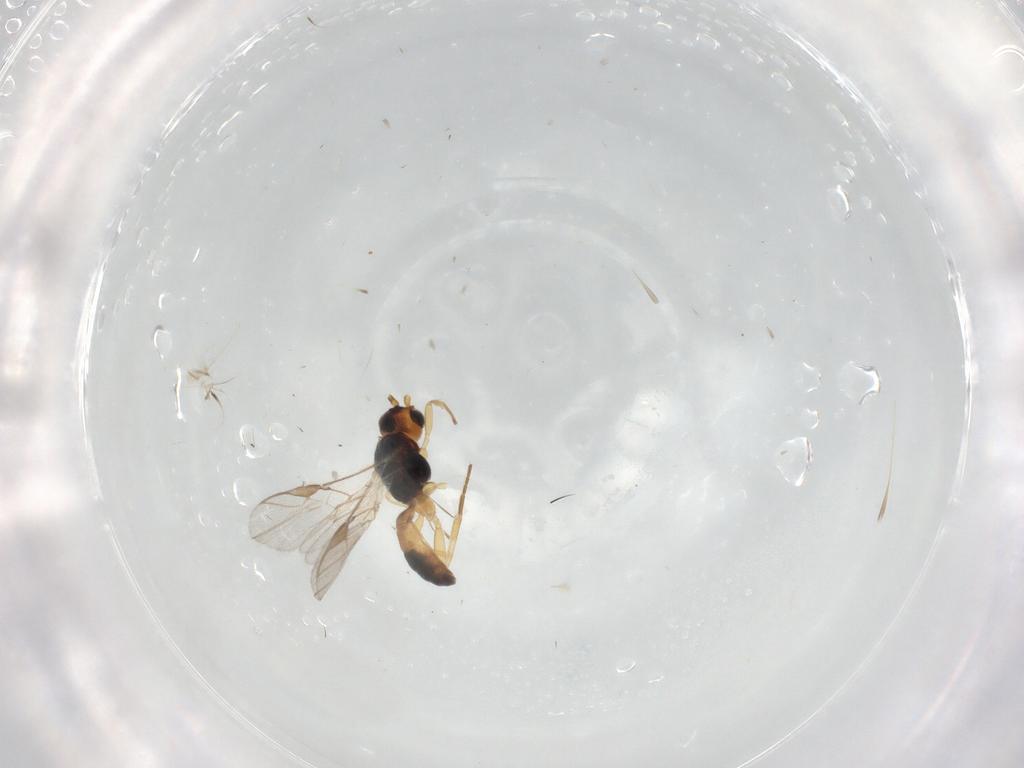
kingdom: Animalia
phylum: Arthropoda
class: Insecta
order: Hymenoptera
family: Braconidae
